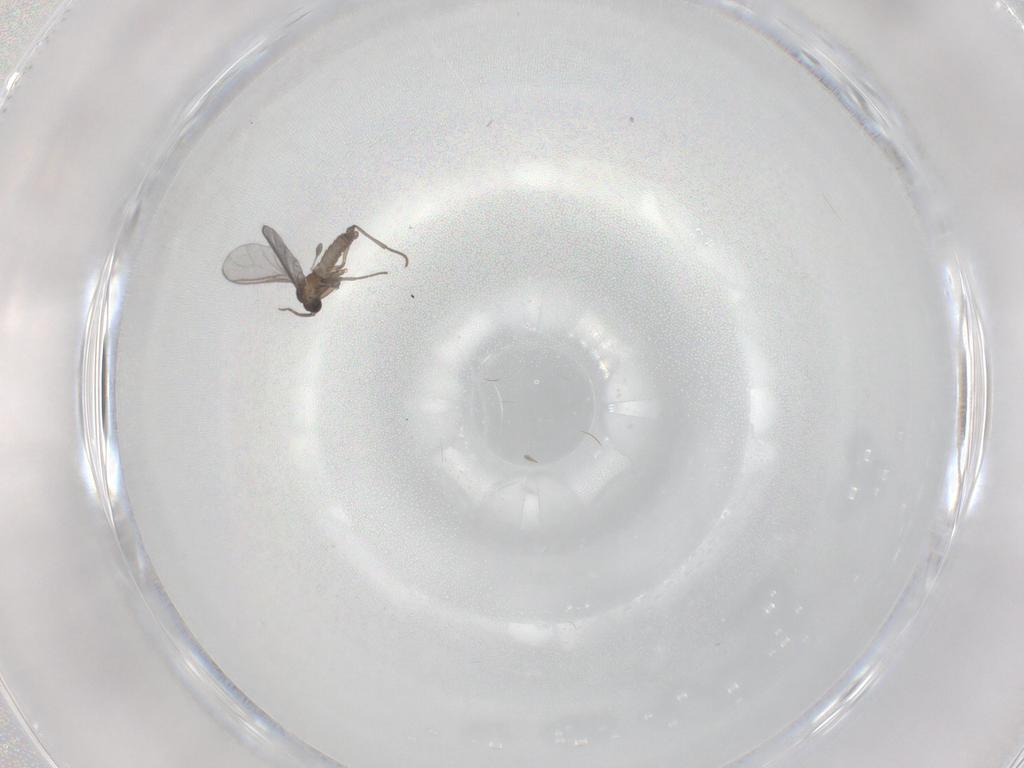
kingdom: Animalia
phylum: Arthropoda
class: Insecta
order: Diptera
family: Sciaridae
